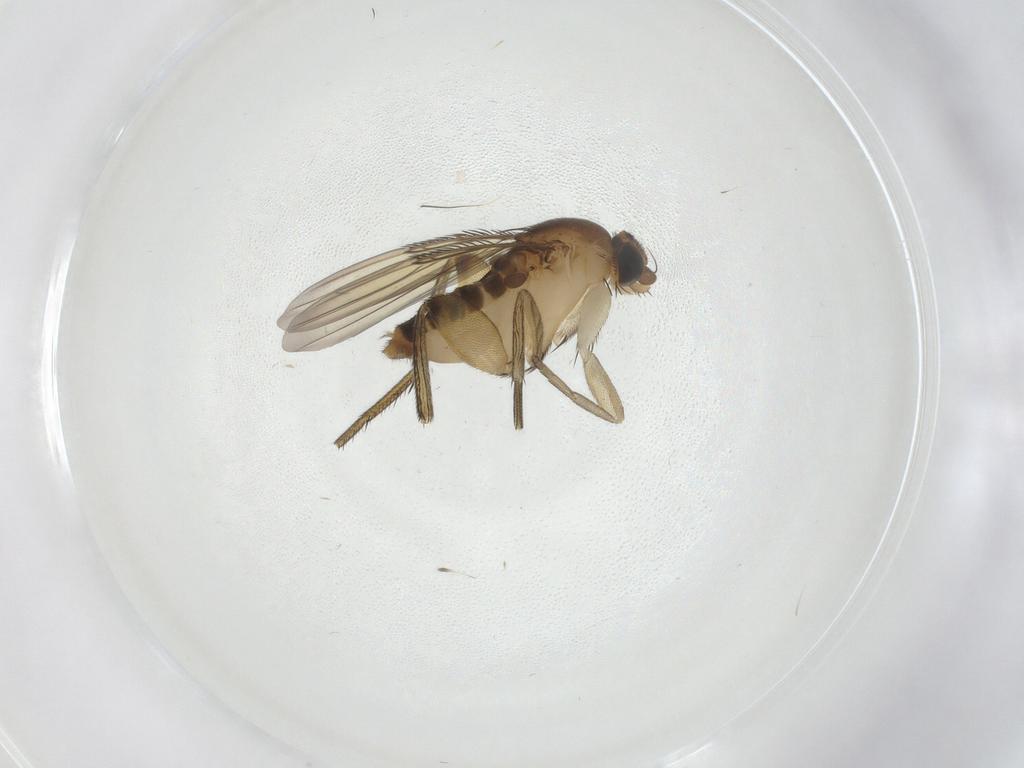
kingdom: Animalia
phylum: Arthropoda
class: Insecta
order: Diptera
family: Phoridae
